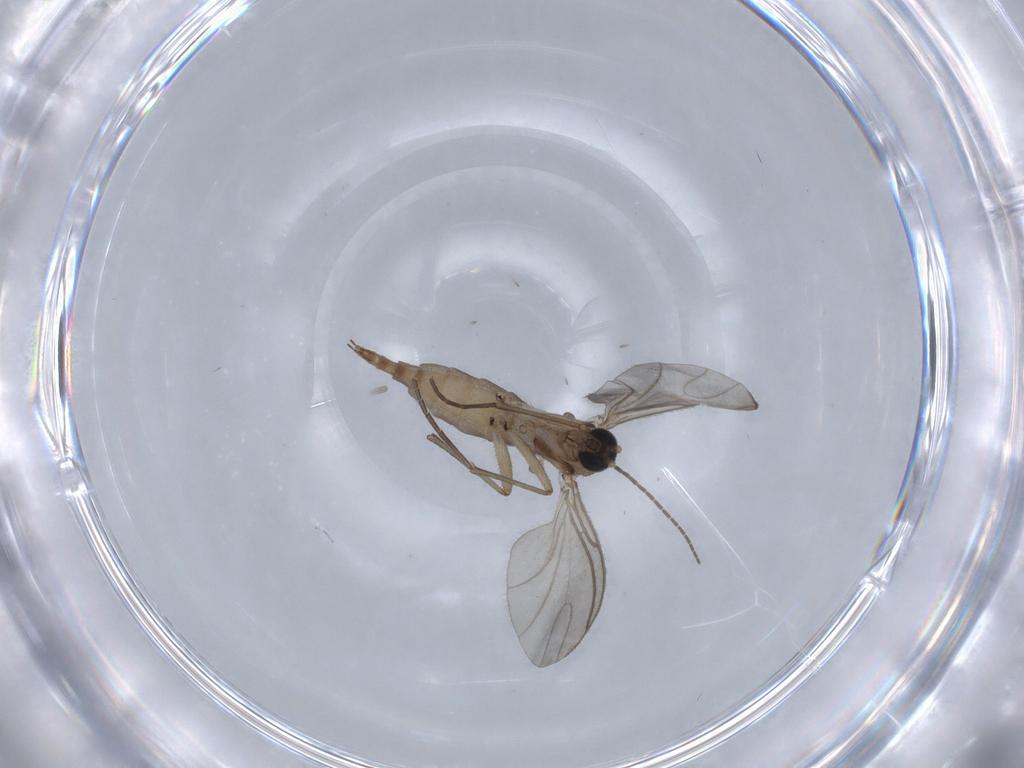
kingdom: Animalia
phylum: Arthropoda
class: Insecta
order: Diptera
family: Sciaridae
